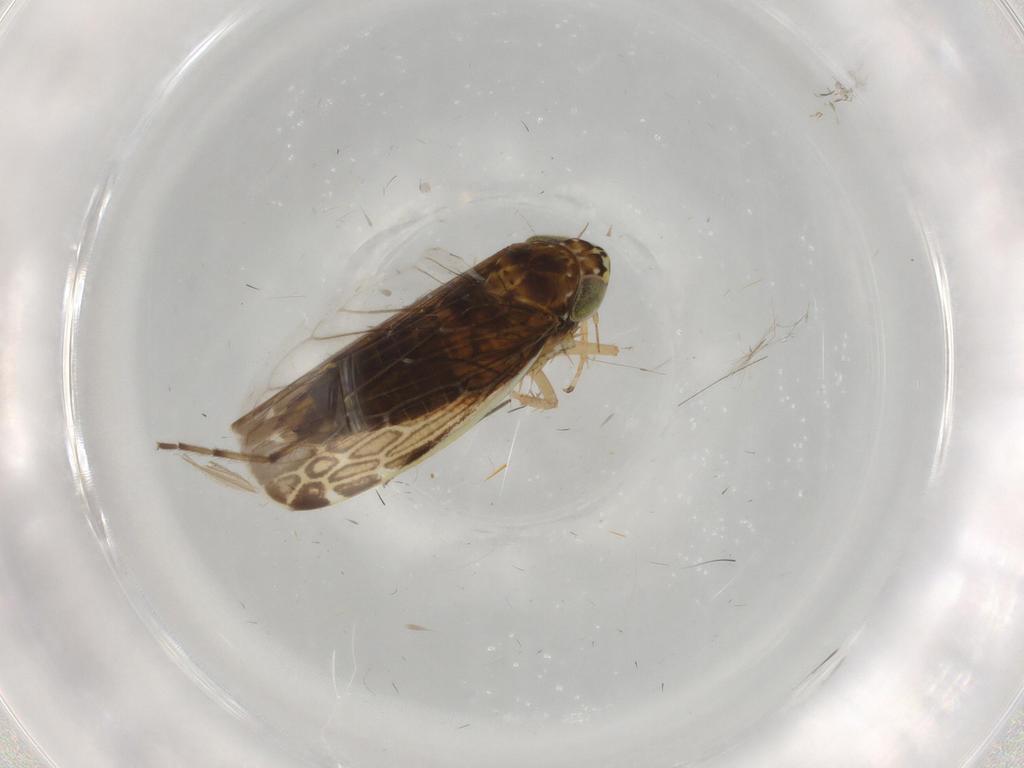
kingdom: Animalia
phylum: Arthropoda
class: Insecta
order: Hemiptera
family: Cicadellidae
